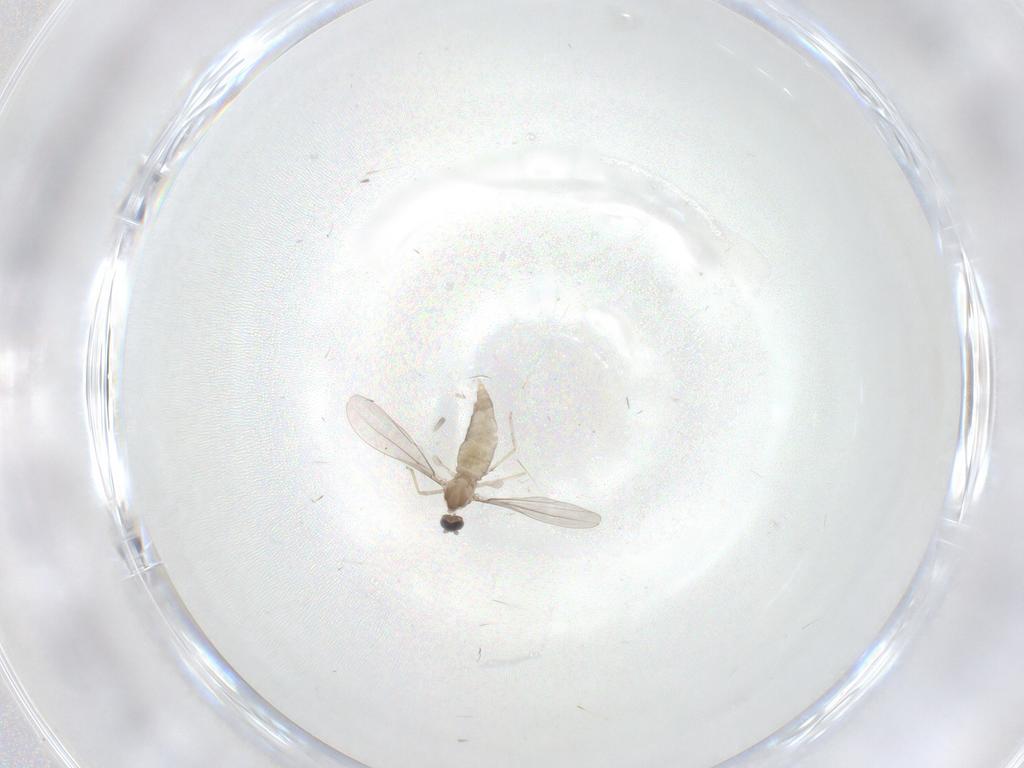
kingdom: Animalia
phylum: Arthropoda
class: Insecta
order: Diptera
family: Cecidomyiidae
